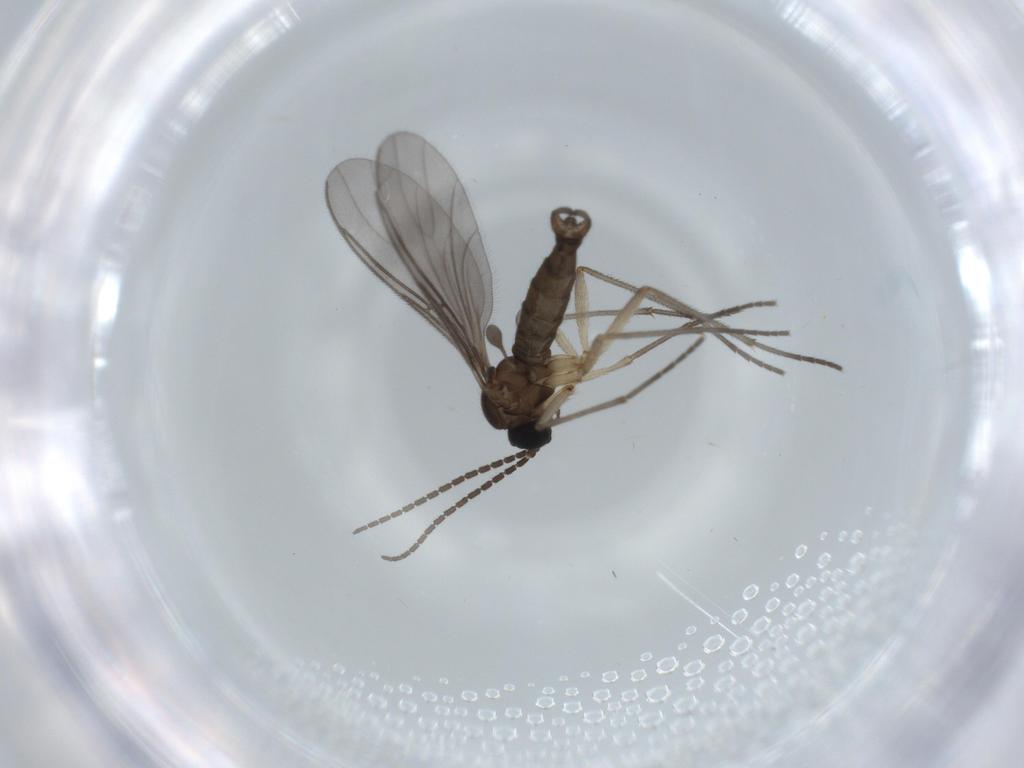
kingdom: Animalia
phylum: Arthropoda
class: Insecta
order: Diptera
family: Sciaridae
